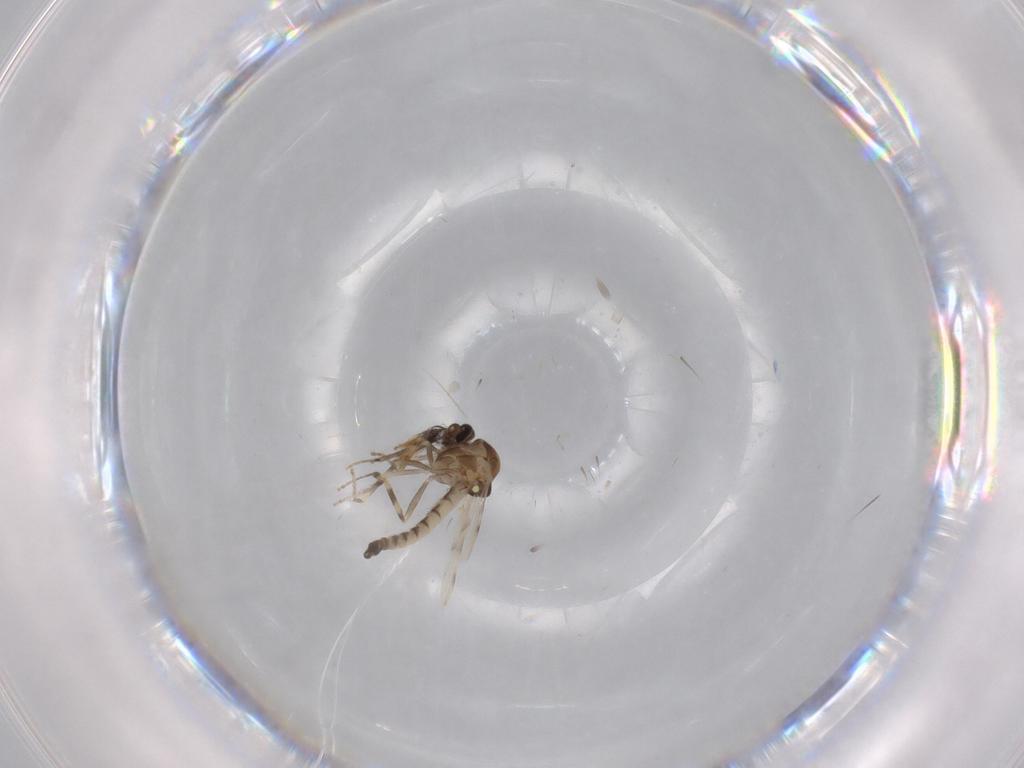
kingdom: Animalia
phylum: Arthropoda
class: Insecta
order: Diptera
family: Ceratopogonidae
